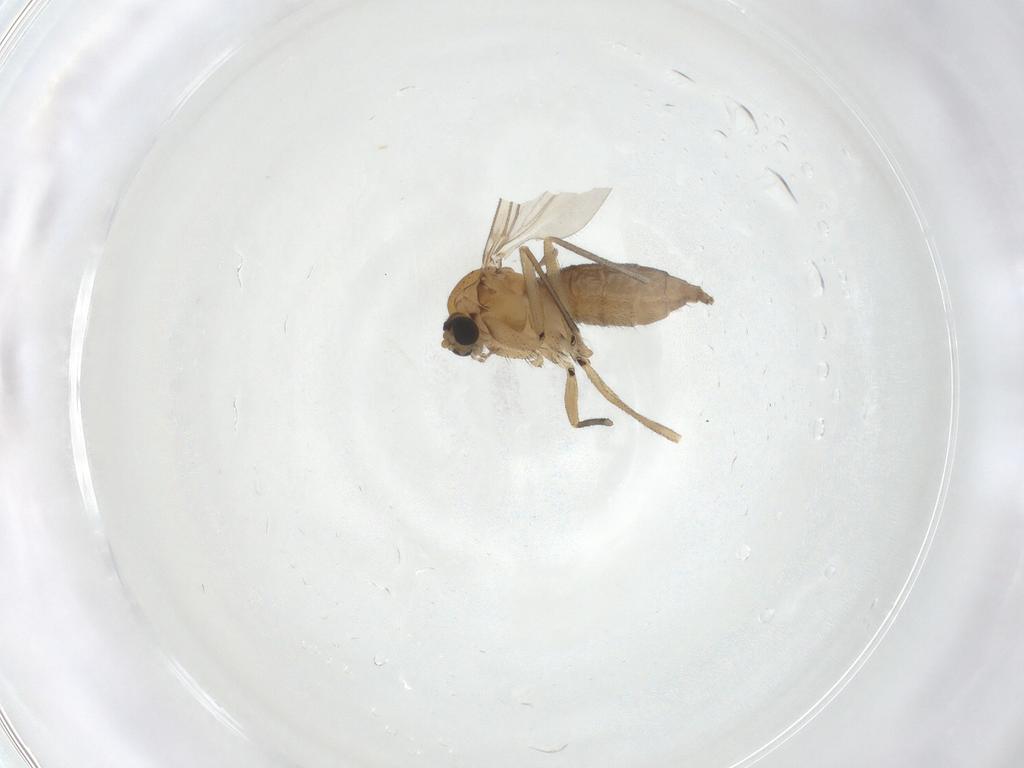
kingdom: Animalia
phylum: Arthropoda
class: Insecta
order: Diptera
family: Sciaridae
